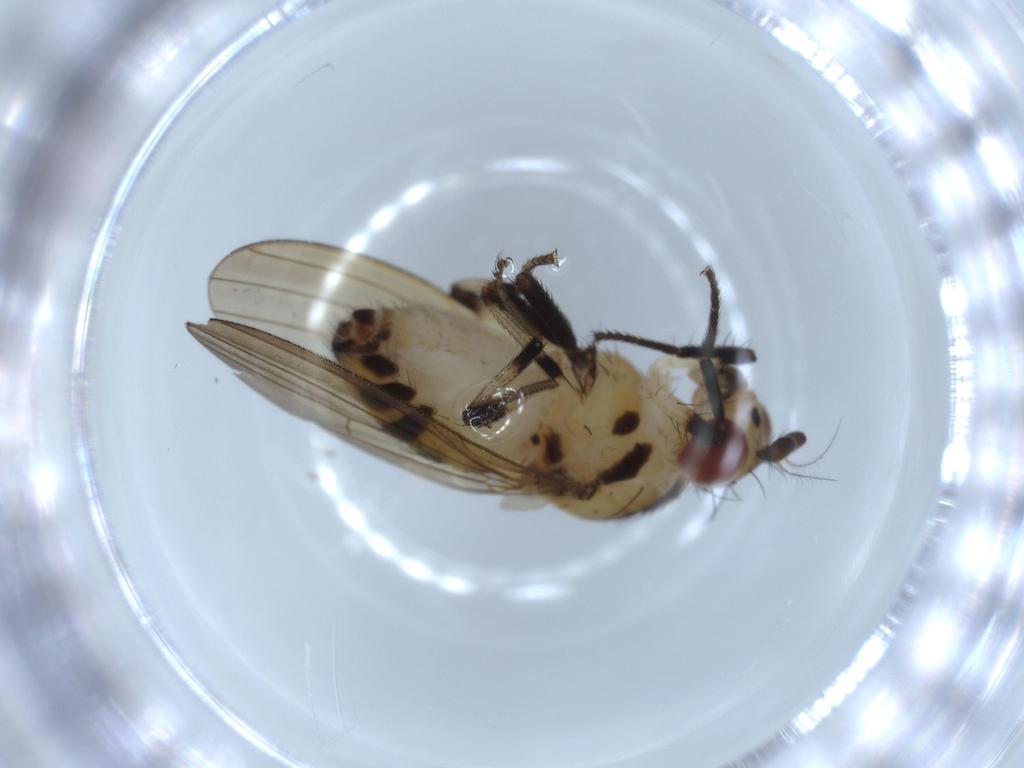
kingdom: Animalia
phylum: Arthropoda
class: Insecta
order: Diptera
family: Lauxaniidae
